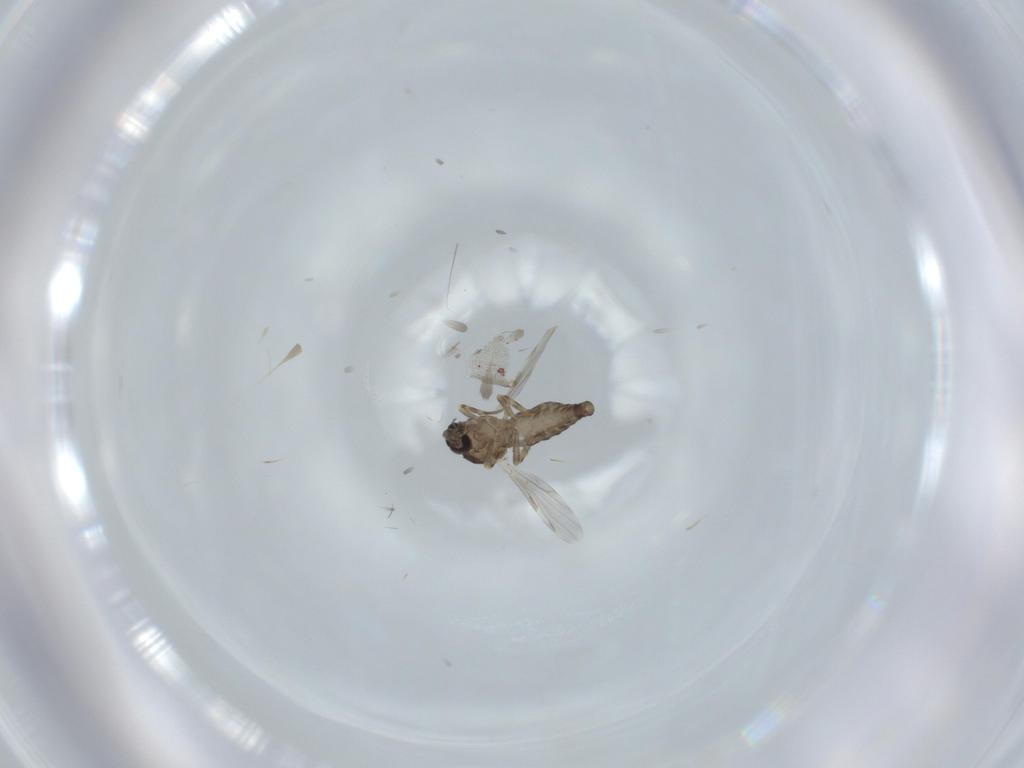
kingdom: Animalia
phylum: Arthropoda
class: Insecta
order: Diptera
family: Ceratopogonidae
